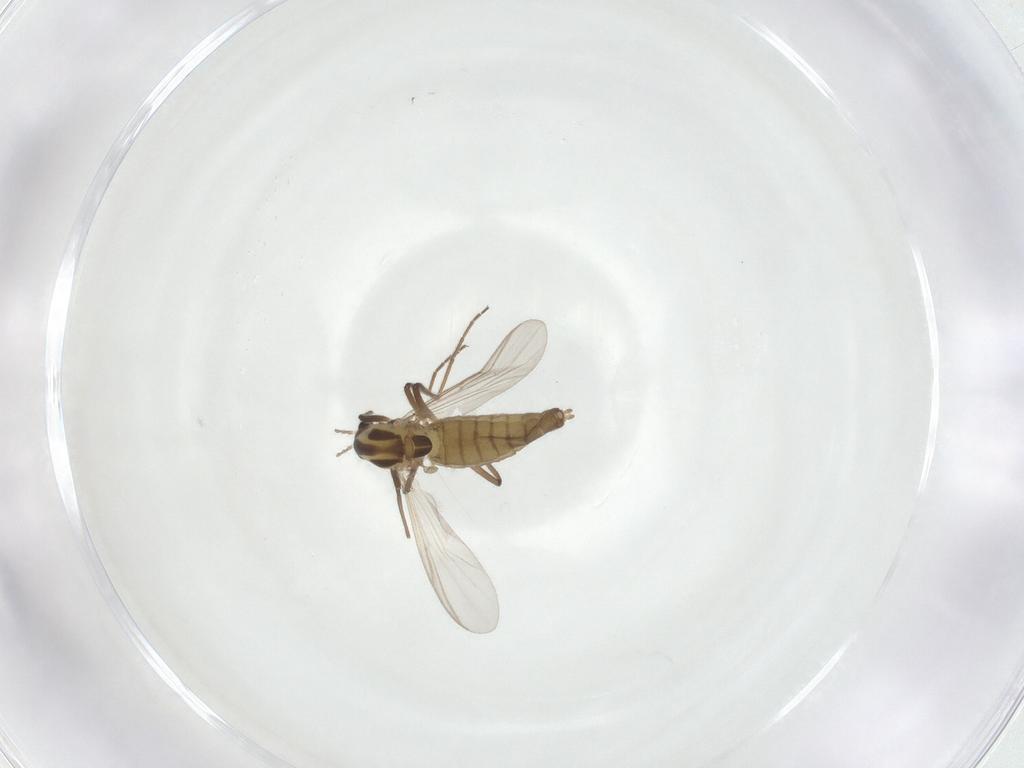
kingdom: Animalia
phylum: Arthropoda
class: Insecta
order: Diptera
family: Chironomidae
